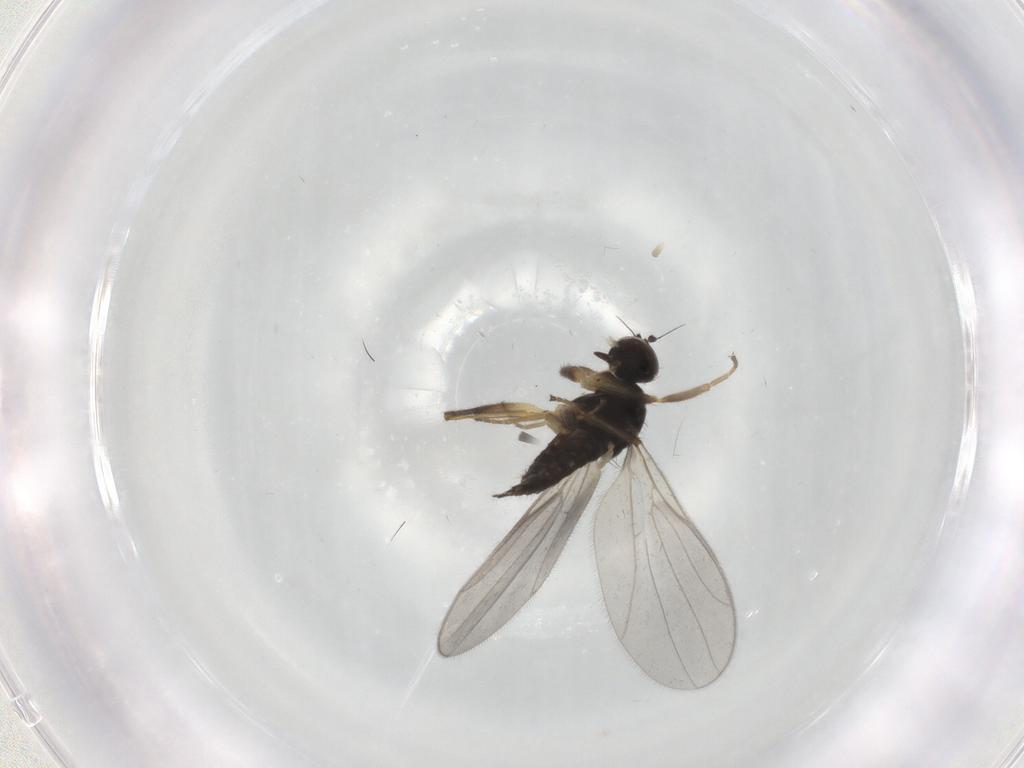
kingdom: Animalia
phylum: Arthropoda
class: Insecta
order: Diptera
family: Hybotidae
